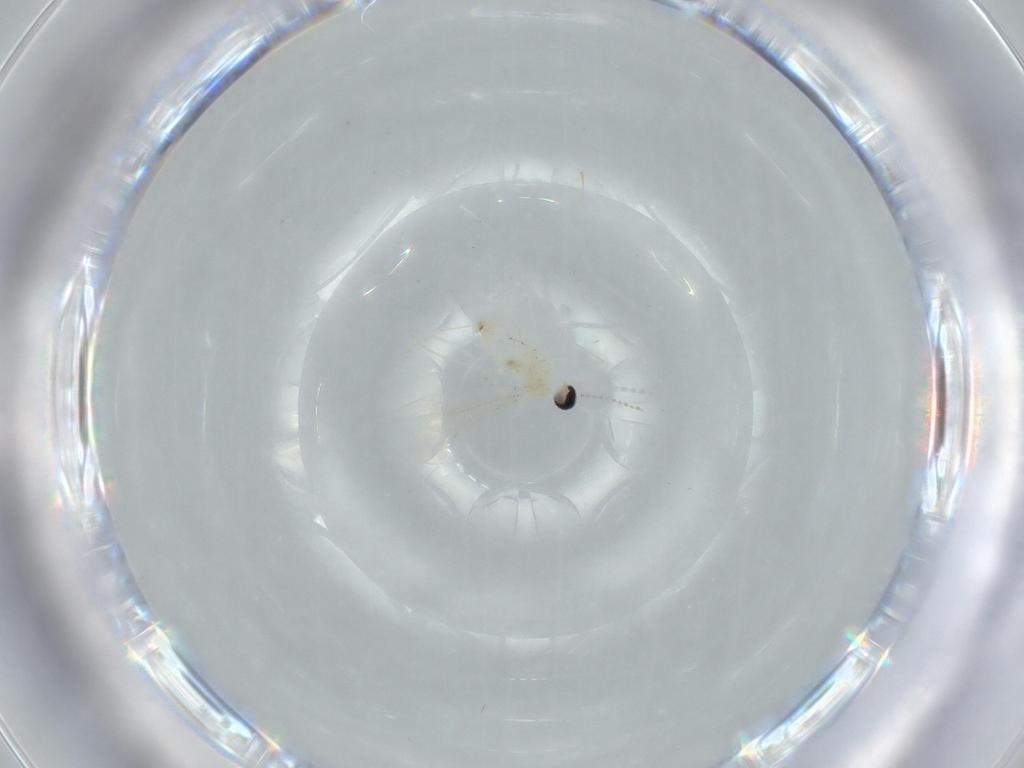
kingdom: Animalia
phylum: Arthropoda
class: Insecta
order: Diptera
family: Cecidomyiidae
